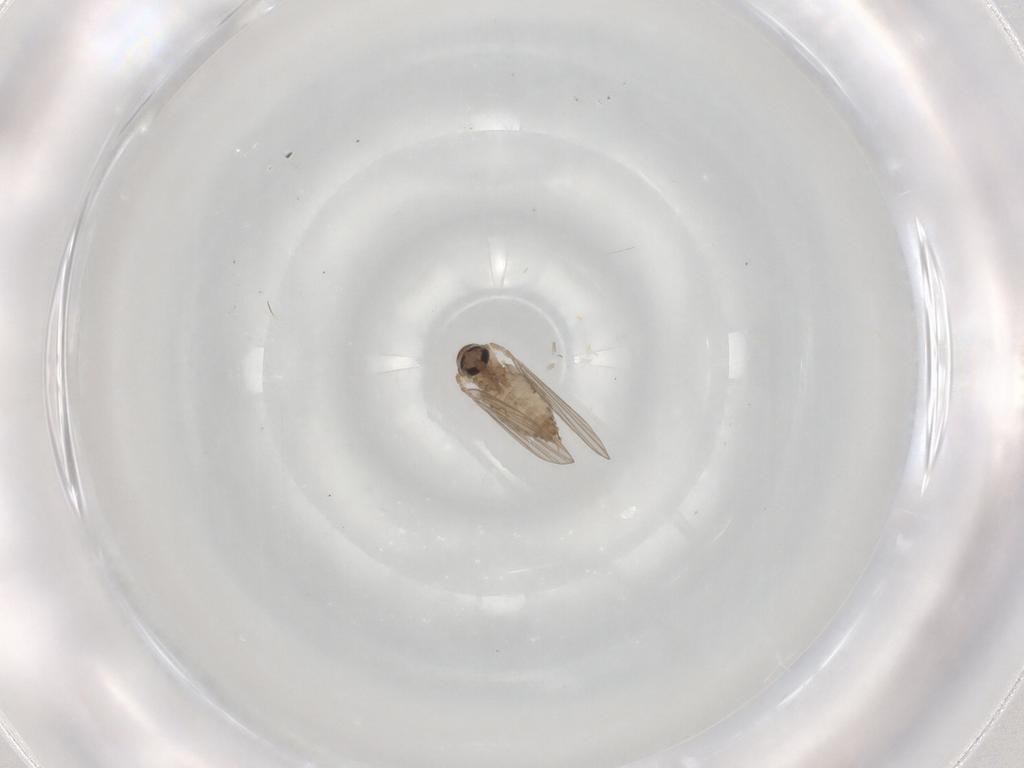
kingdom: Animalia
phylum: Arthropoda
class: Insecta
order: Diptera
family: Psychodidae
